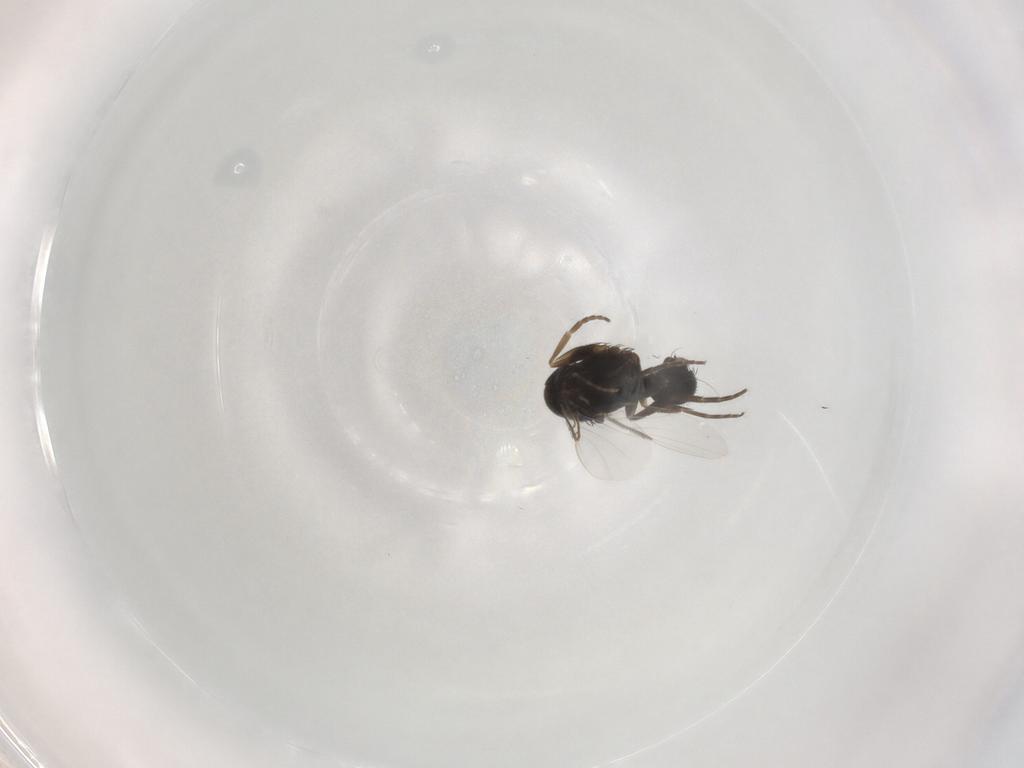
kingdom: Animalia
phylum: Arthropoda
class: Insecta
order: Diptera
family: Phoridae
